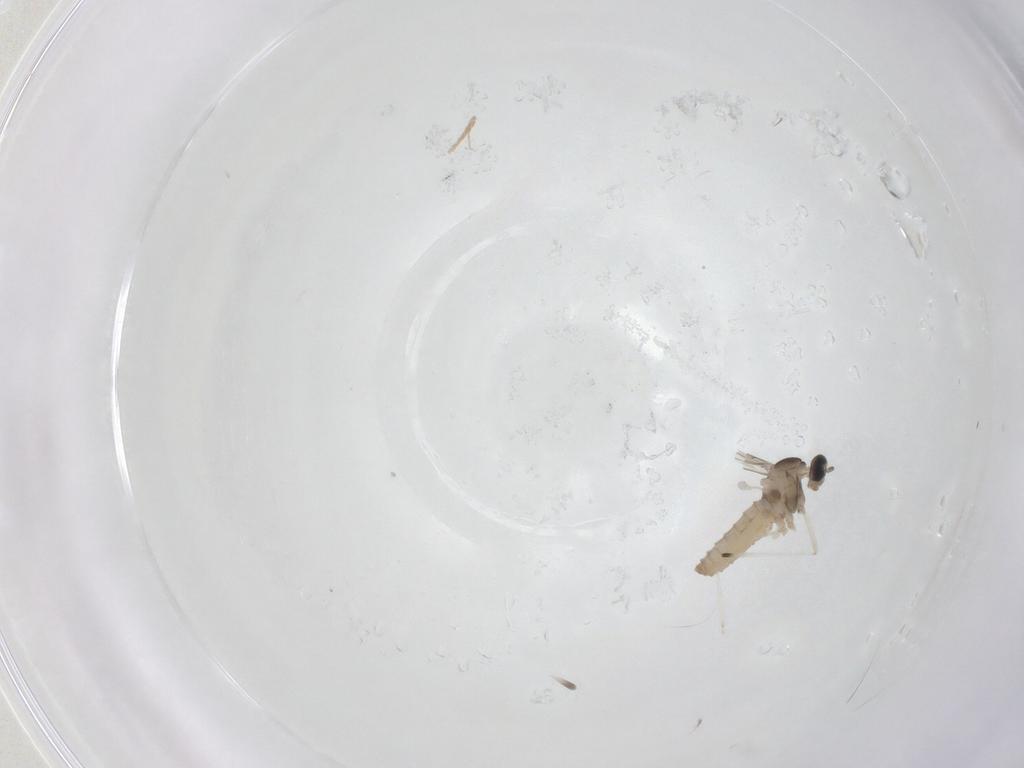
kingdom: Animalia
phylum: Arthropoda
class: Insecta
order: Diptera
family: Cecidomyiidae
